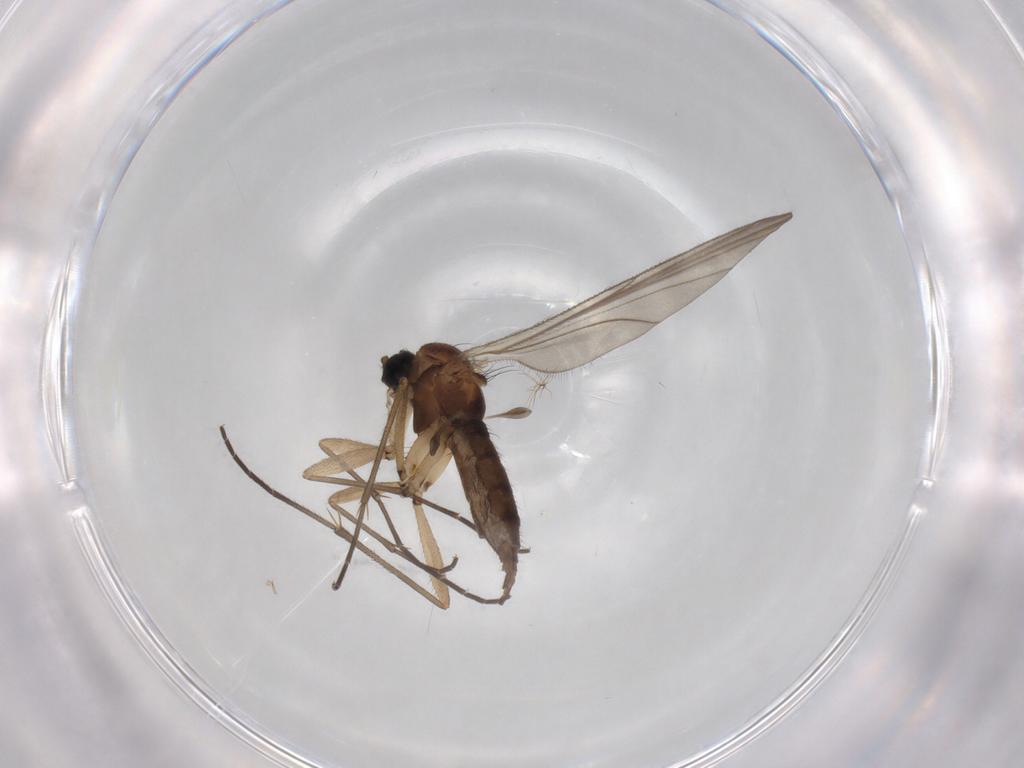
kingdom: Animalia
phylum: Arthropoda
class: Insecta
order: Diptera
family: Sciaridae
